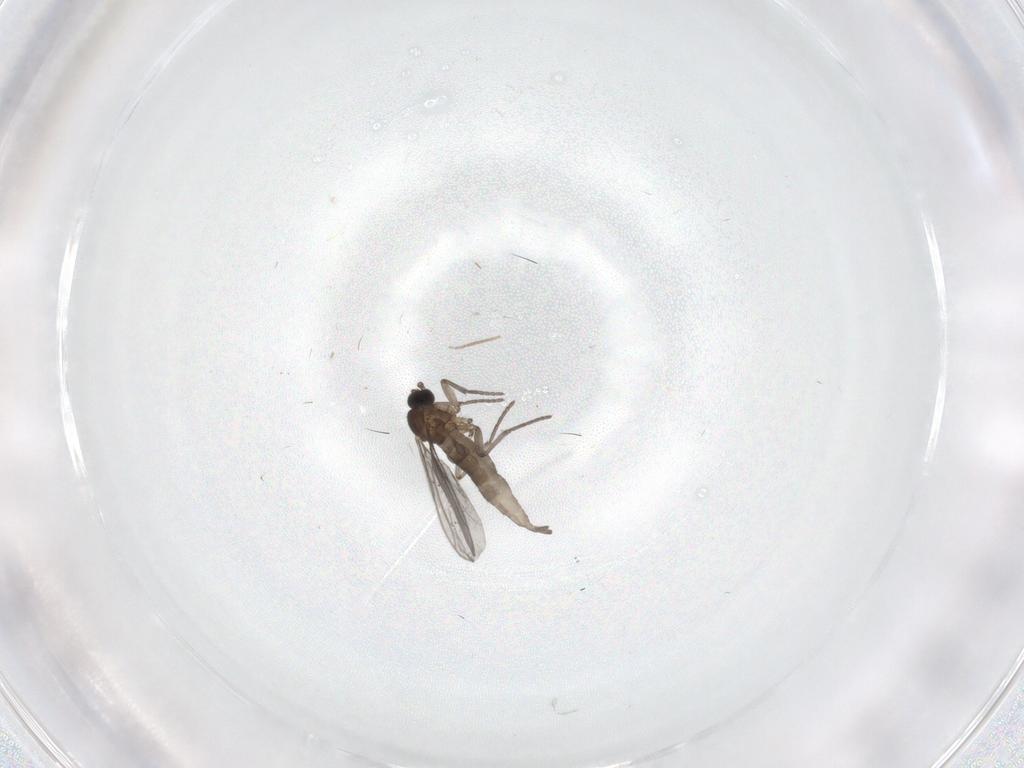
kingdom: Animalia
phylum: Arthropoda
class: Insecta
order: Diptera
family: Sciaridae
